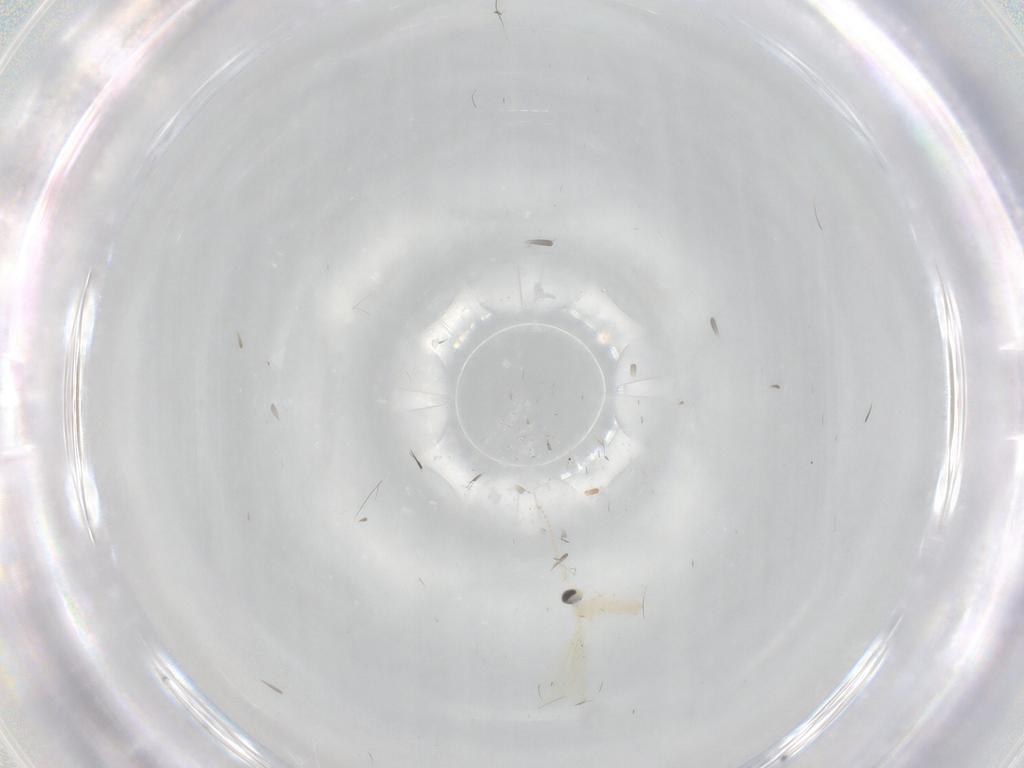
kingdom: Animalia
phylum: Arthropoda
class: Insecta
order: Diptera
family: Cecidomyiidae
